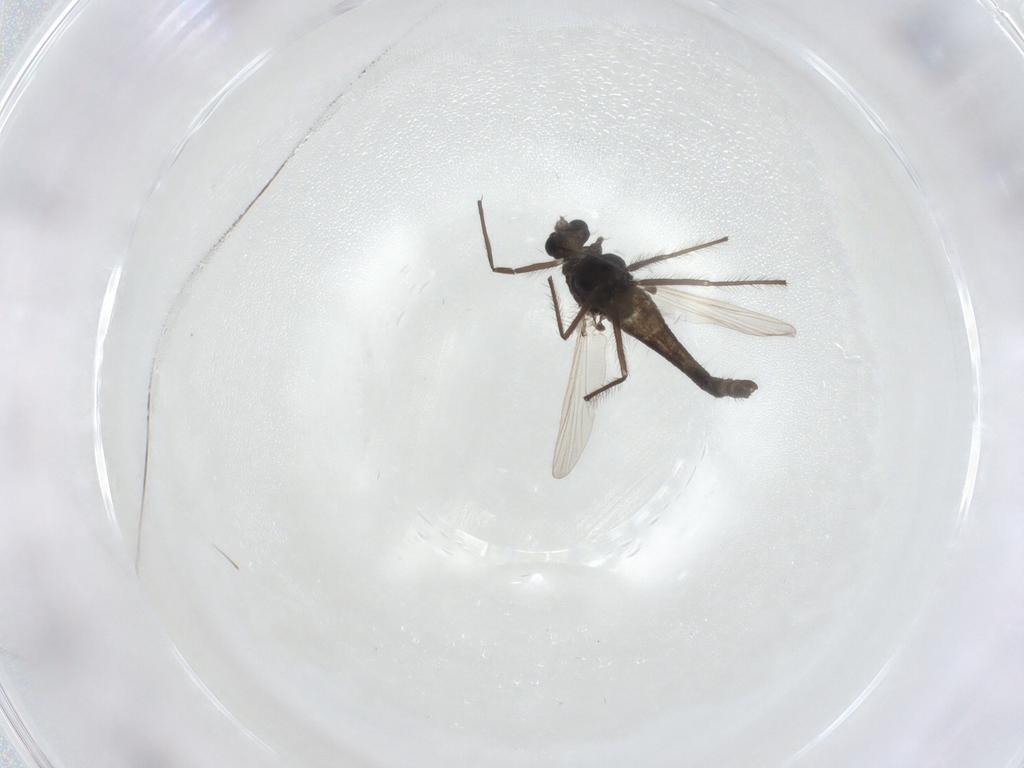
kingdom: Animalia
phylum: Arthropoda
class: Insecta
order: Diptera
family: Chironomidae
